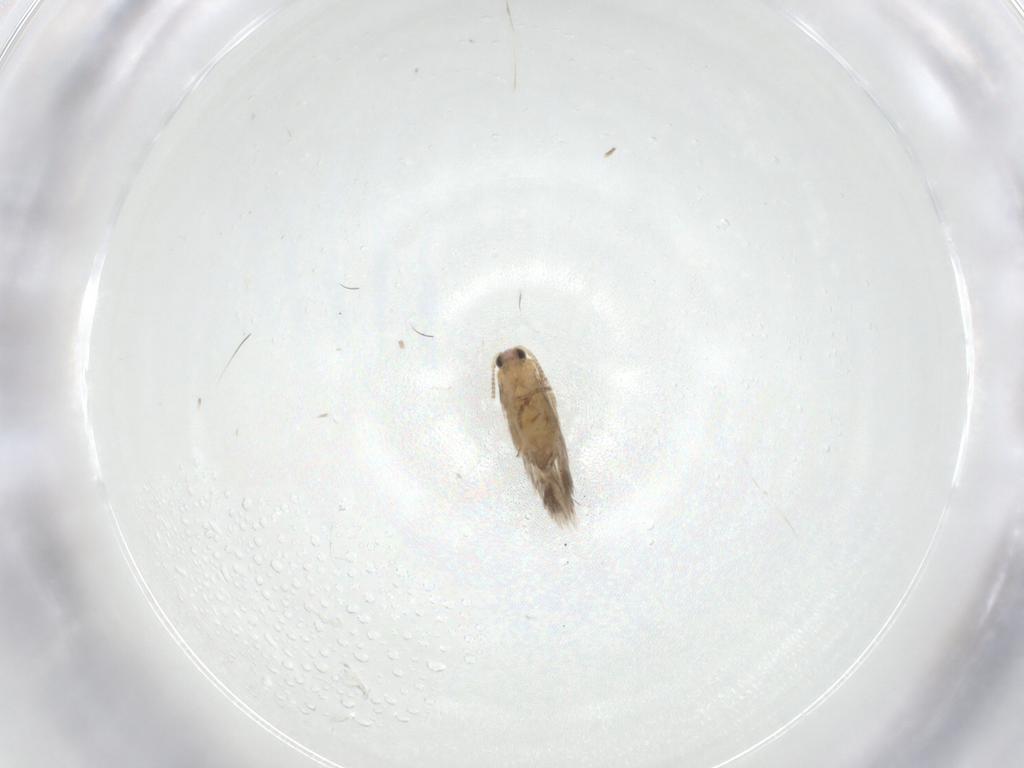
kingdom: Animalia
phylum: Arthropoda
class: Insecta
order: Lepidoptera
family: Nepticulidae
